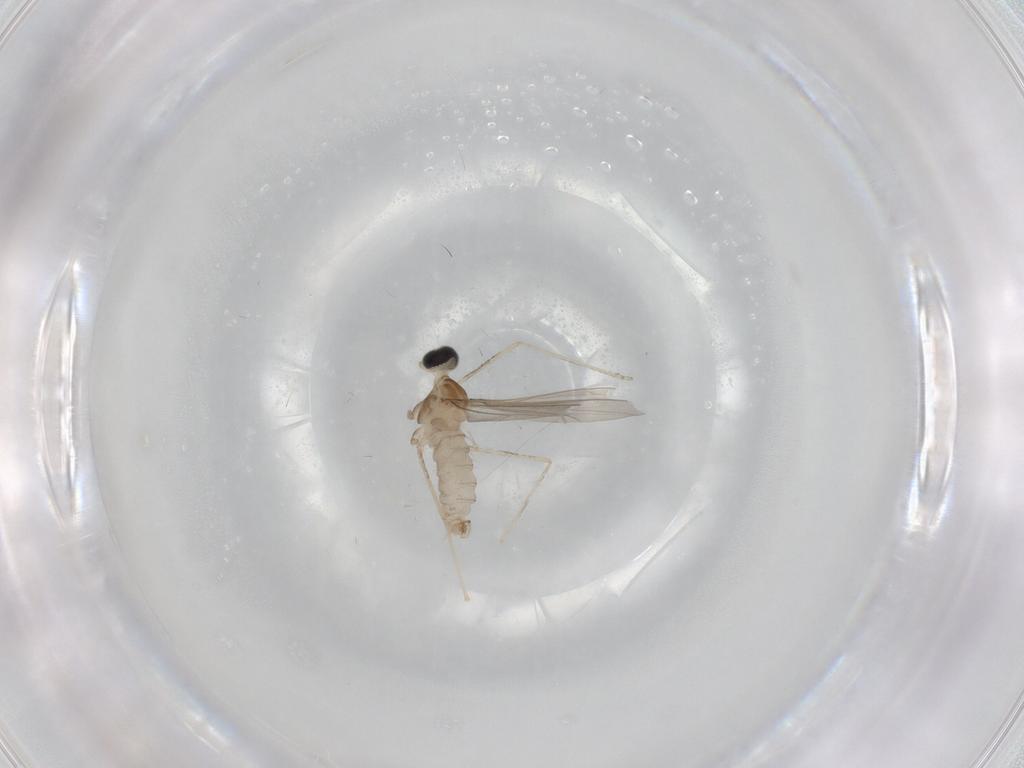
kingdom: Animalia
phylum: Arthropoda
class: Insecta
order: Diptera
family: Cecidomyiidae
